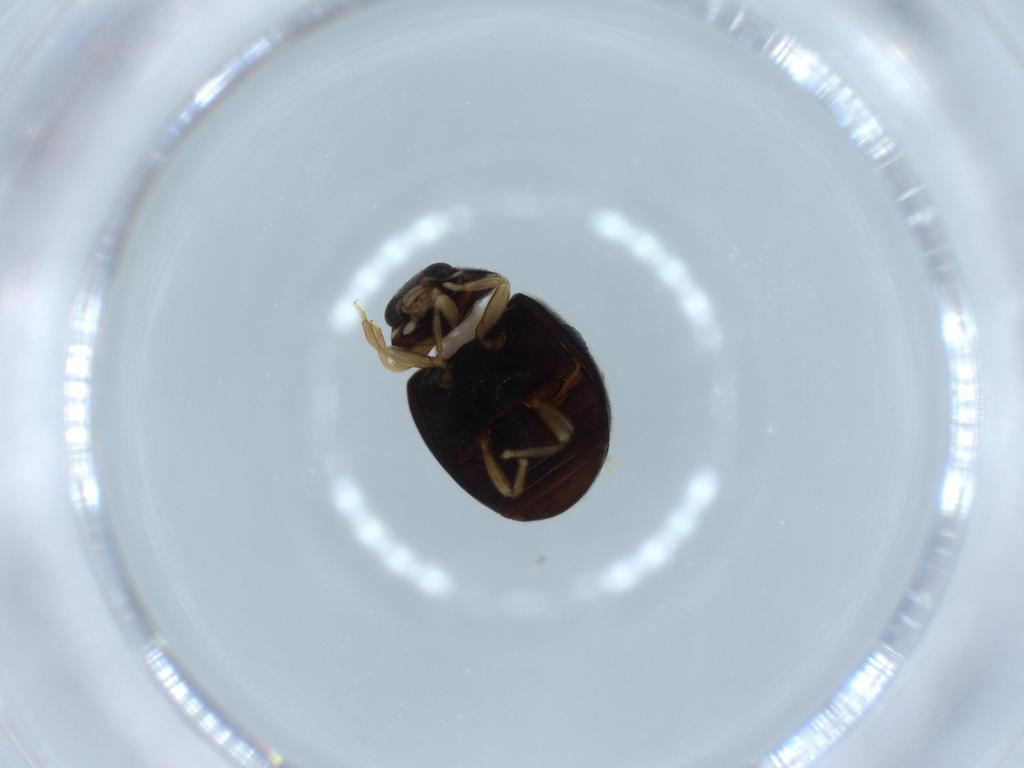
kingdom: Animalia
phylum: Arthropoda
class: Insecta
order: Coleoptera
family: Coccinellidae
